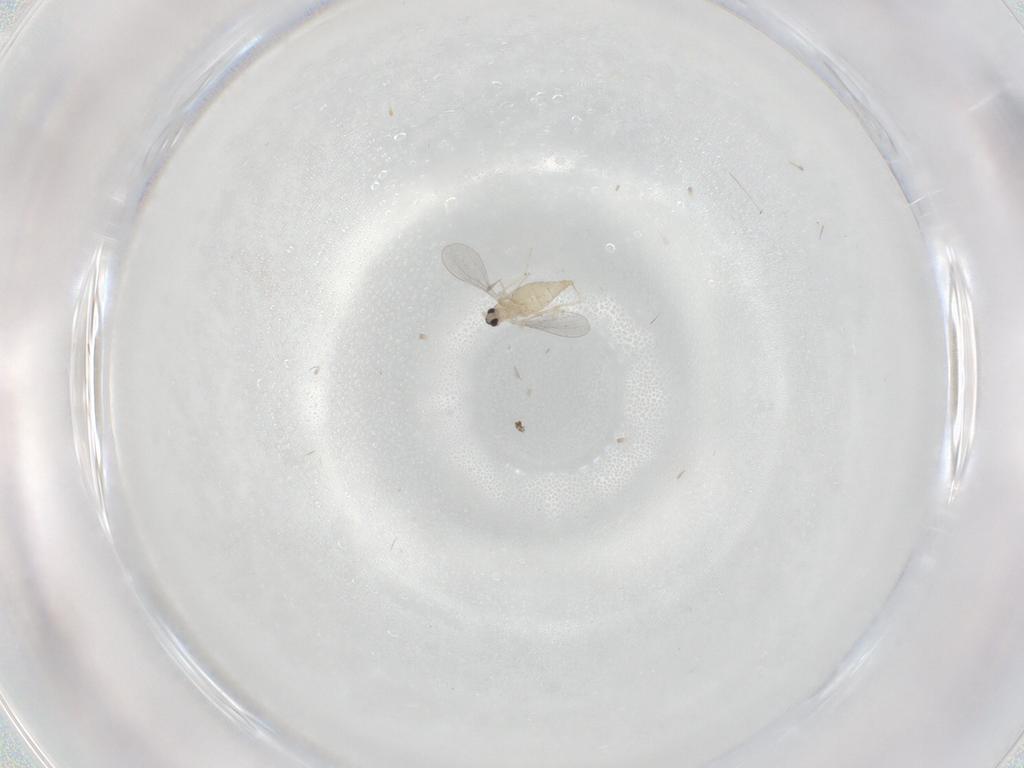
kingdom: Animalia
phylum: Arthropoda
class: Insecta
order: Diptera
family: Cecidomyiidae
